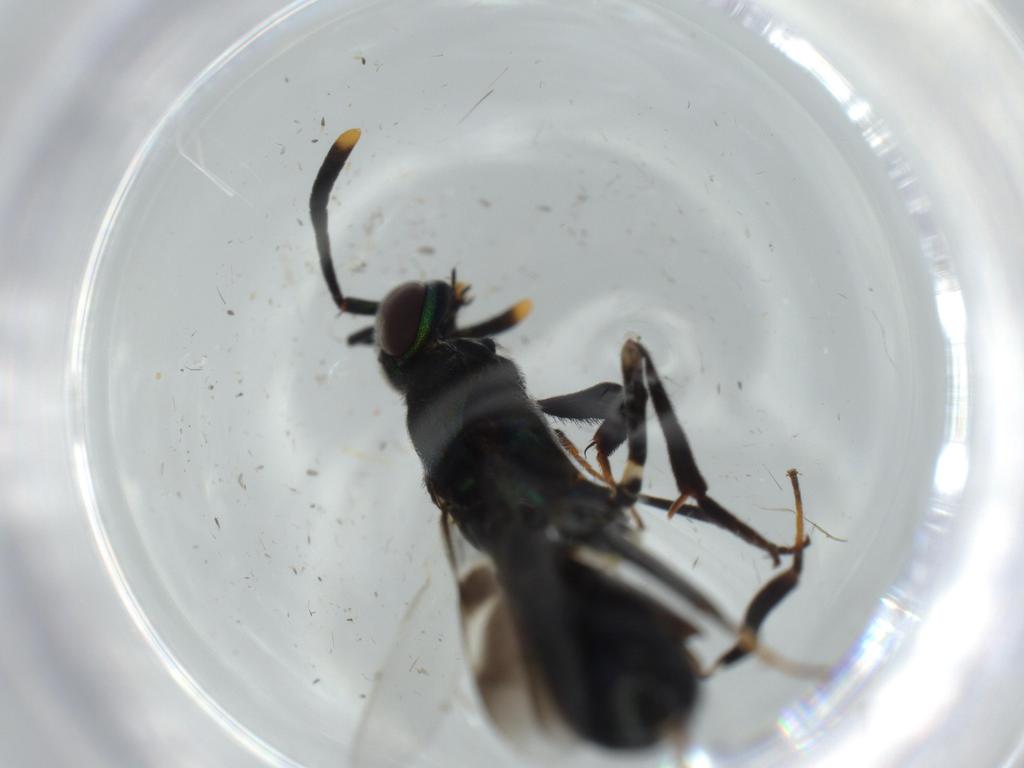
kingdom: Animalia
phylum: Arthropoda
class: Insecta
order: Hymenoptera
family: Eupelmidae
